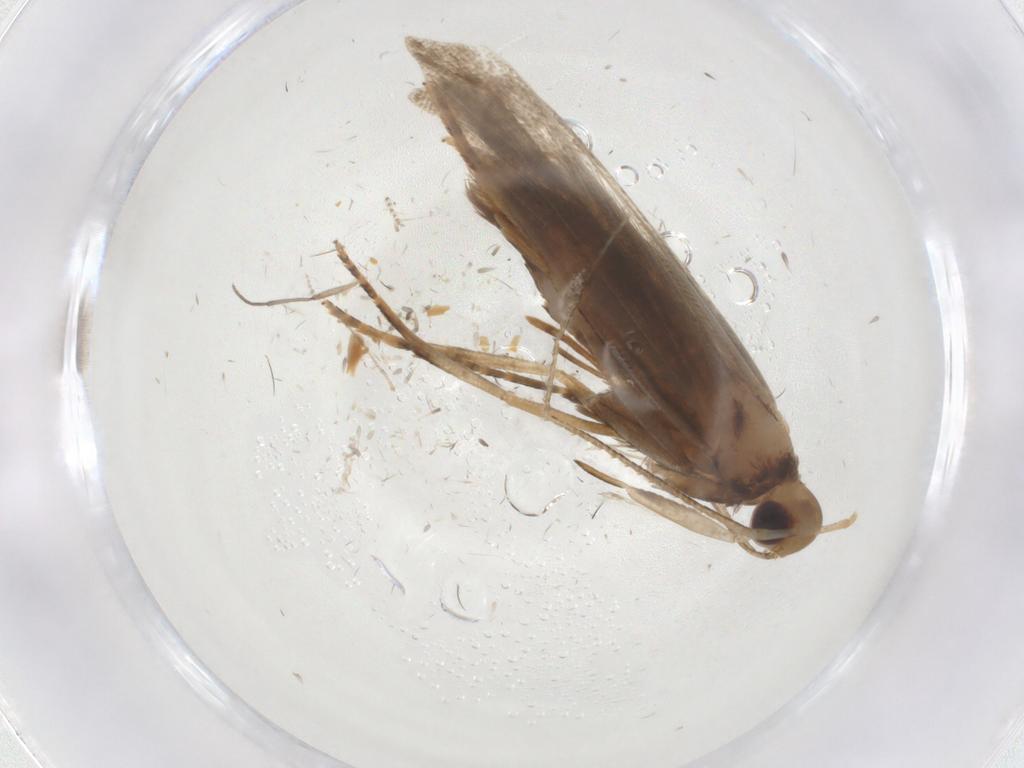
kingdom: Animalia
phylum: Arthropoda
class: Insecta
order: Lepidoptera
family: Gelechiidae
